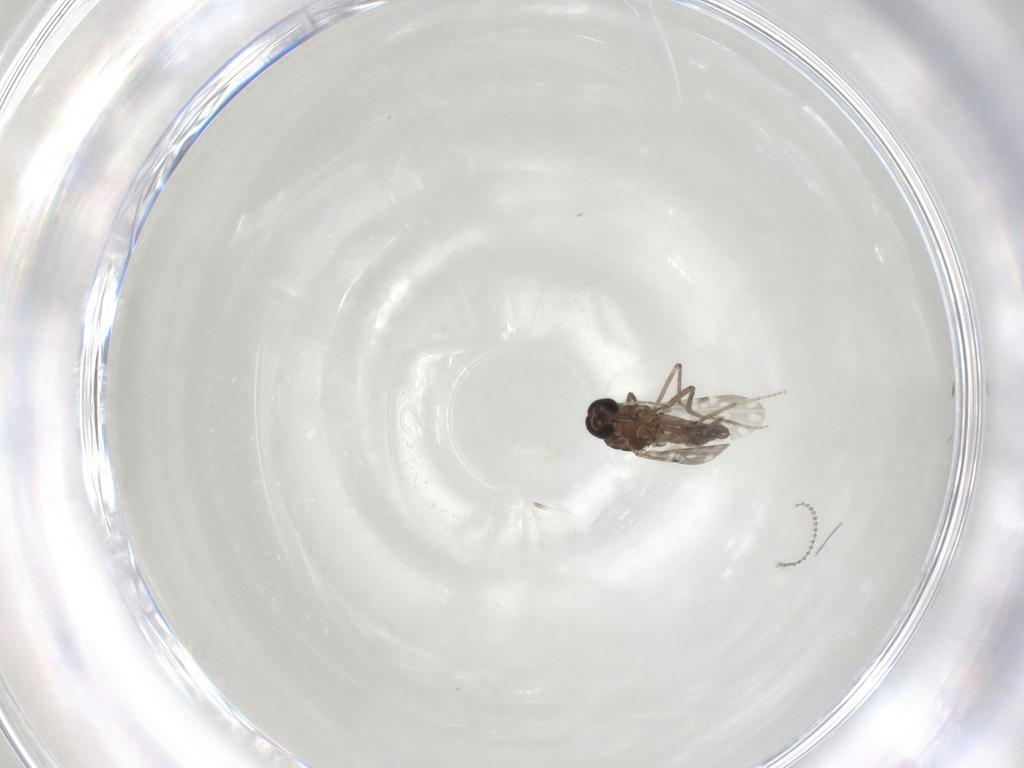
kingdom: Animalia
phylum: Arthropoda
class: Insecta
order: Diptera
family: Cecidomyiidae
